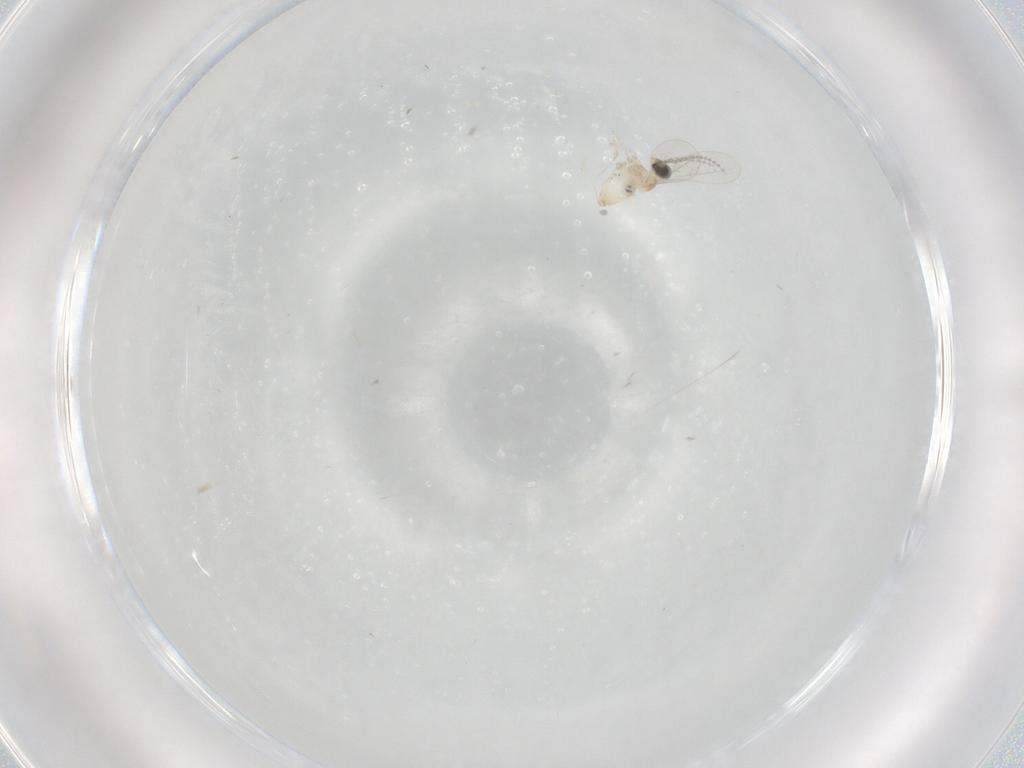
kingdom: Animalia
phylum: Arthropoda
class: Insecta
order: Diptera
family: Cecidomyiidae
